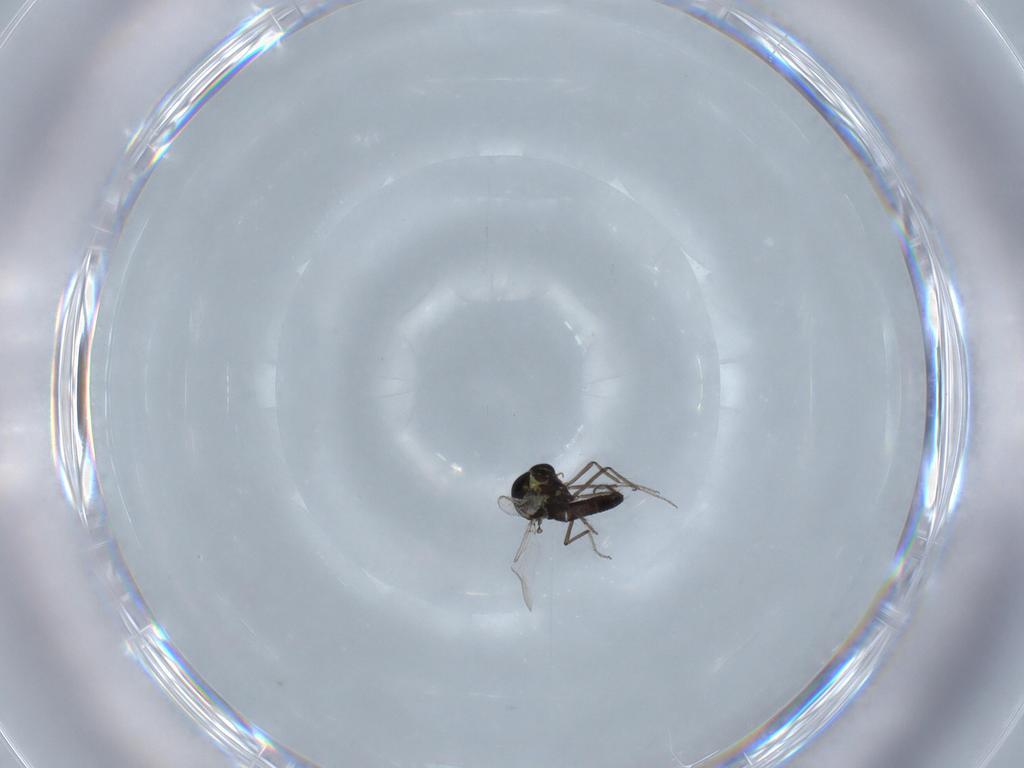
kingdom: Animalia
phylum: Arthropoda
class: Insecta
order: Diptera
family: Ceratopogonidae
